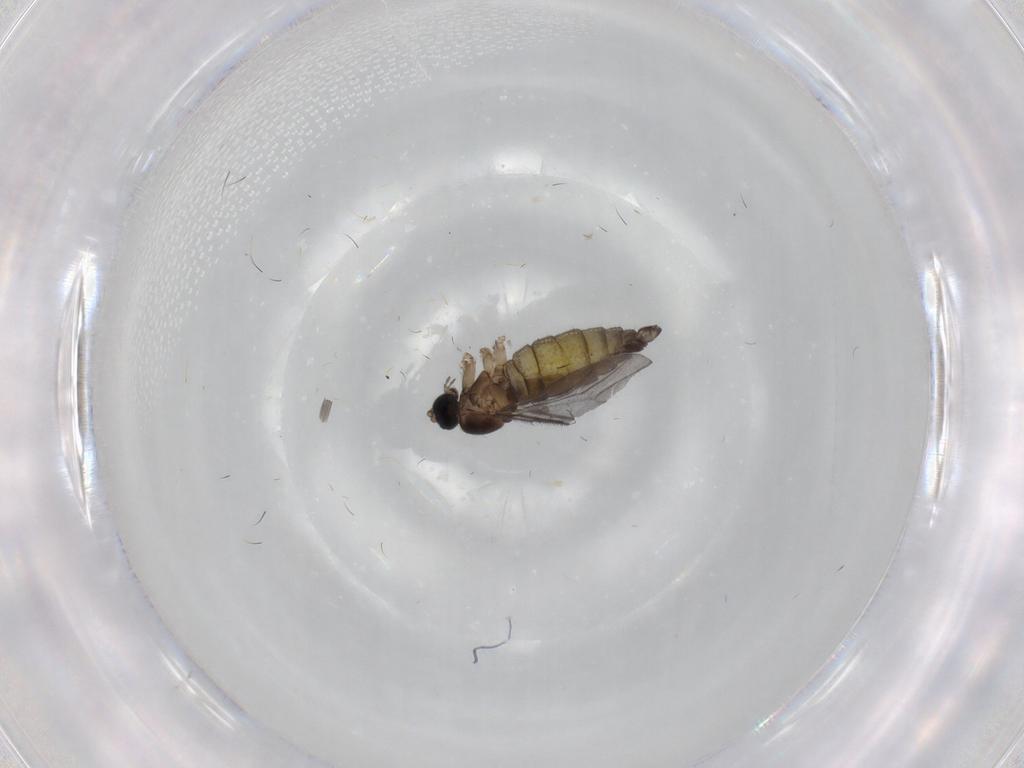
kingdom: Animalia
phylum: Arthropoda
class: Insecta
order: Diptera
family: Sciaridae
